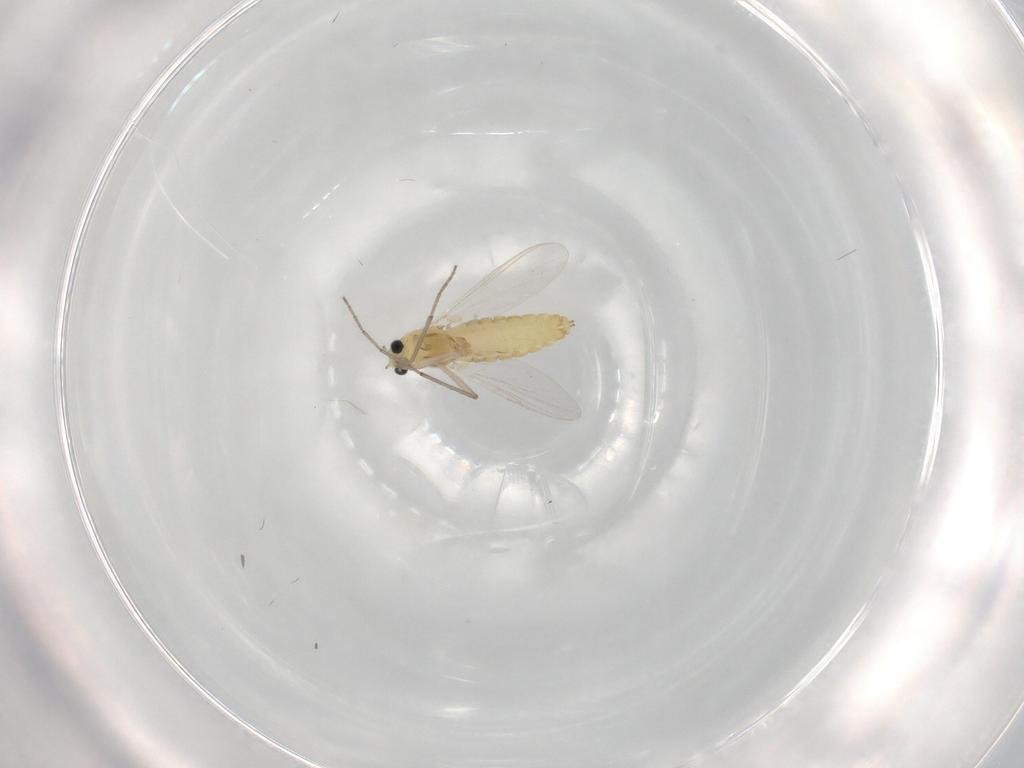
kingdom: Animalia
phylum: Arthropoda
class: Insecta
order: Diptera
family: Chironomidae
